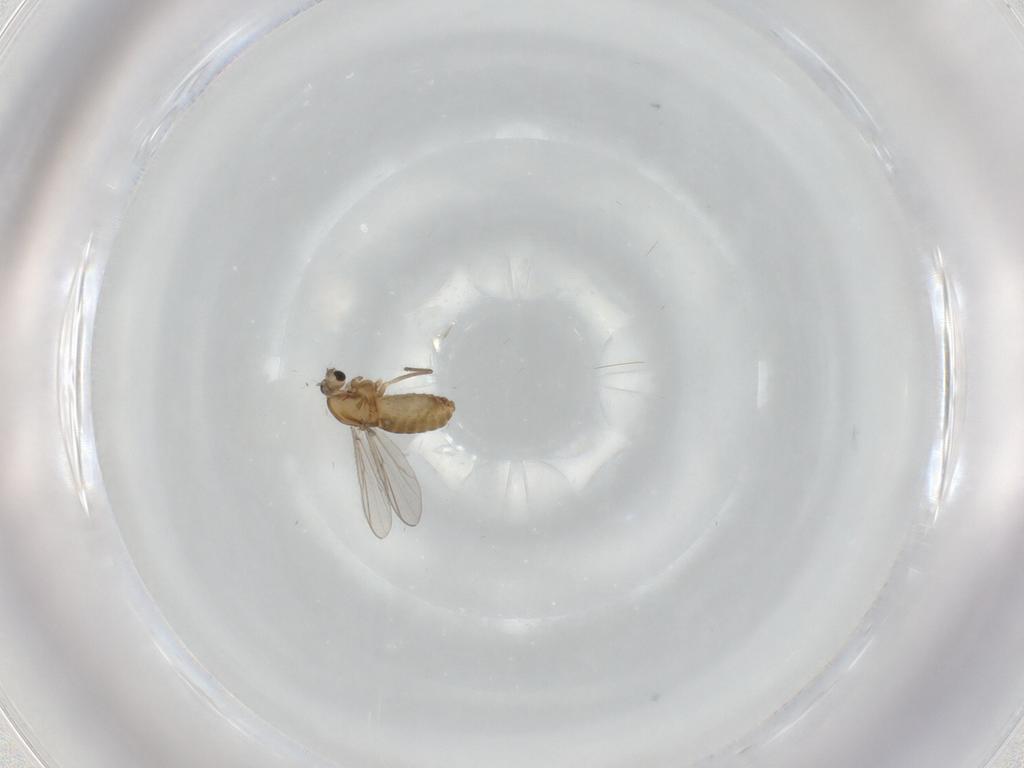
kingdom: Animalia
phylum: Arthropoda
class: Insecta
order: Diptera
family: Chironomidae
